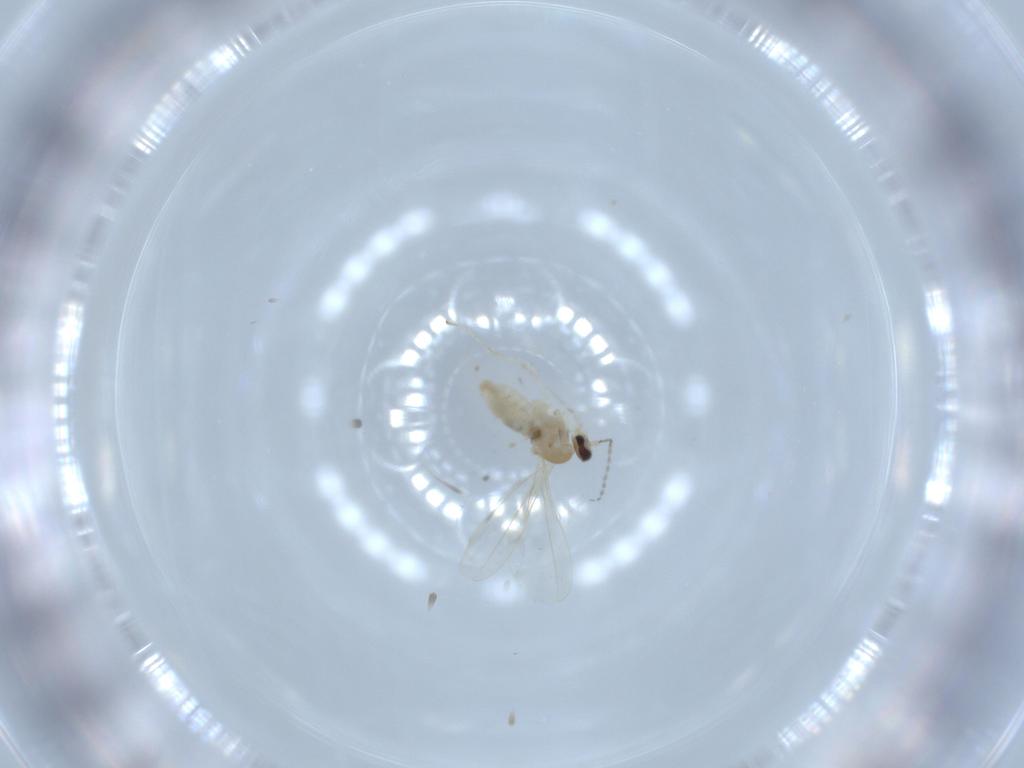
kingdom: Animalia
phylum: Arthropoda
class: Insecta
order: Diptera
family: Cecidomyiidae
